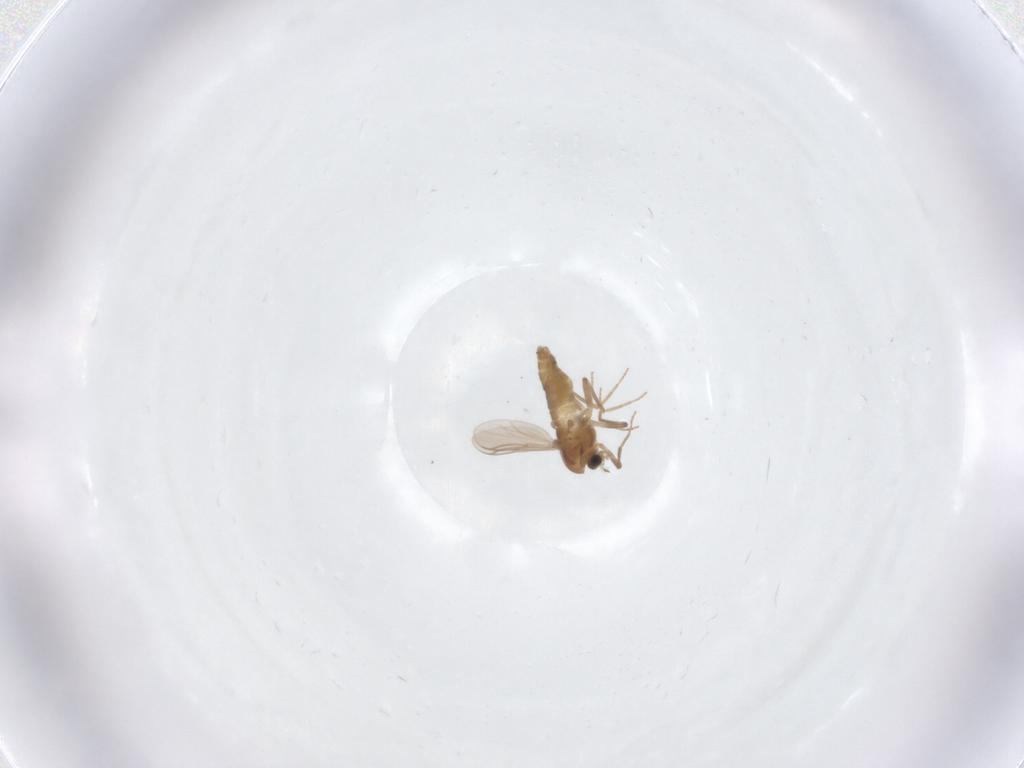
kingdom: Animalia
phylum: Arthropoda
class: Insecta
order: Diptera
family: Chironomidae
